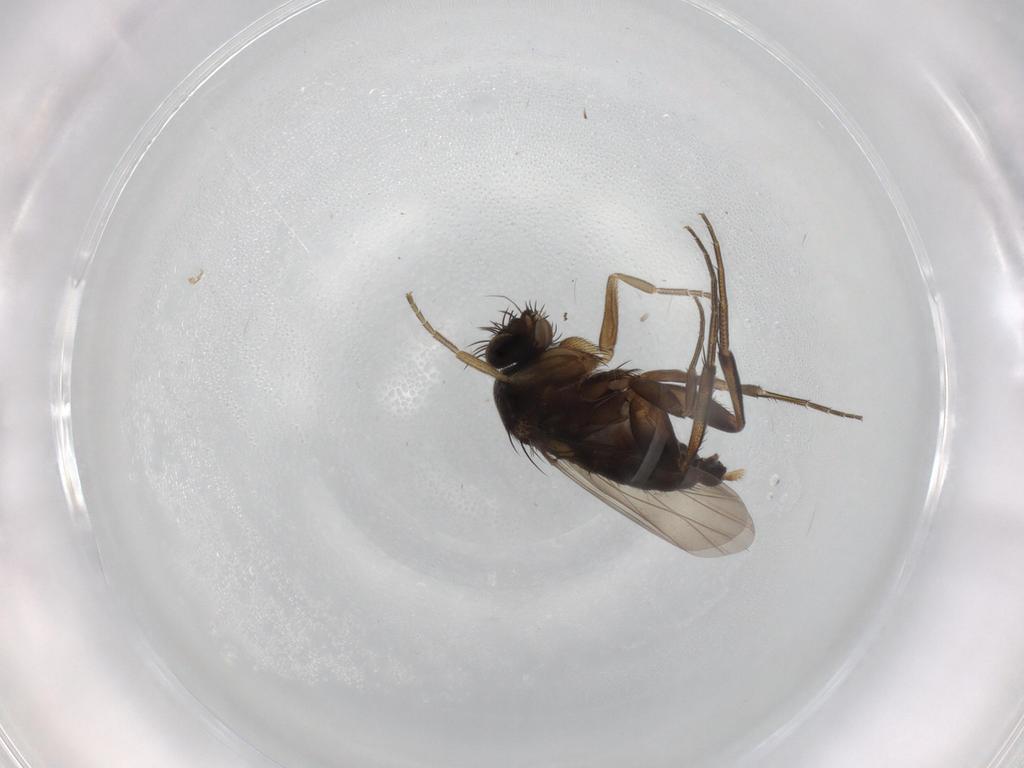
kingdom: Animalia
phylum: Arthropoda
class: Insecta
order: Diptera
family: Phoridae
